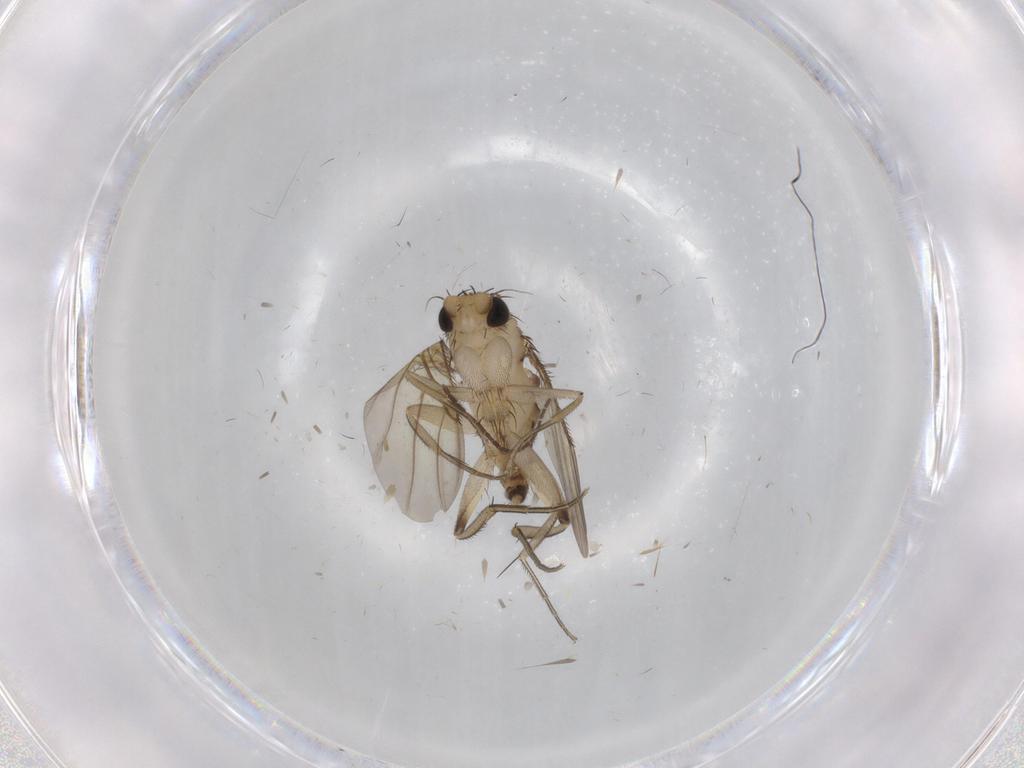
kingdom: Animalia
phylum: Arthropoda
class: Insecta
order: Diptera
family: Phoridae
